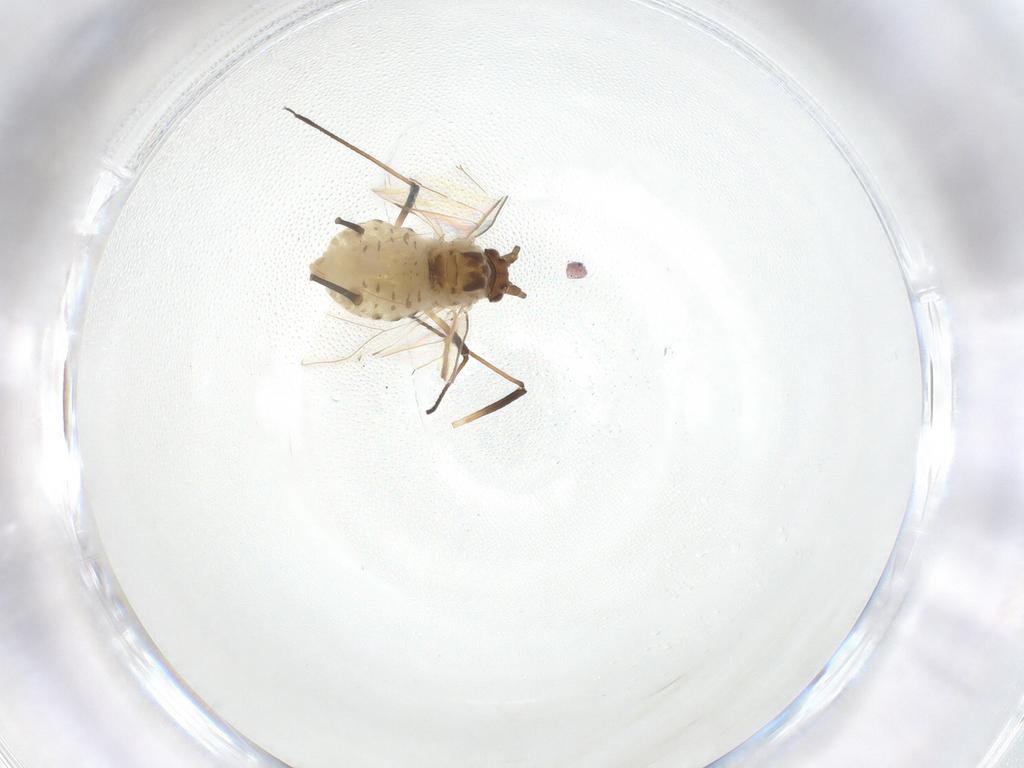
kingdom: Animalia
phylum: Arthropoda
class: Insecta
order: Hemiptera
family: Aphididae
